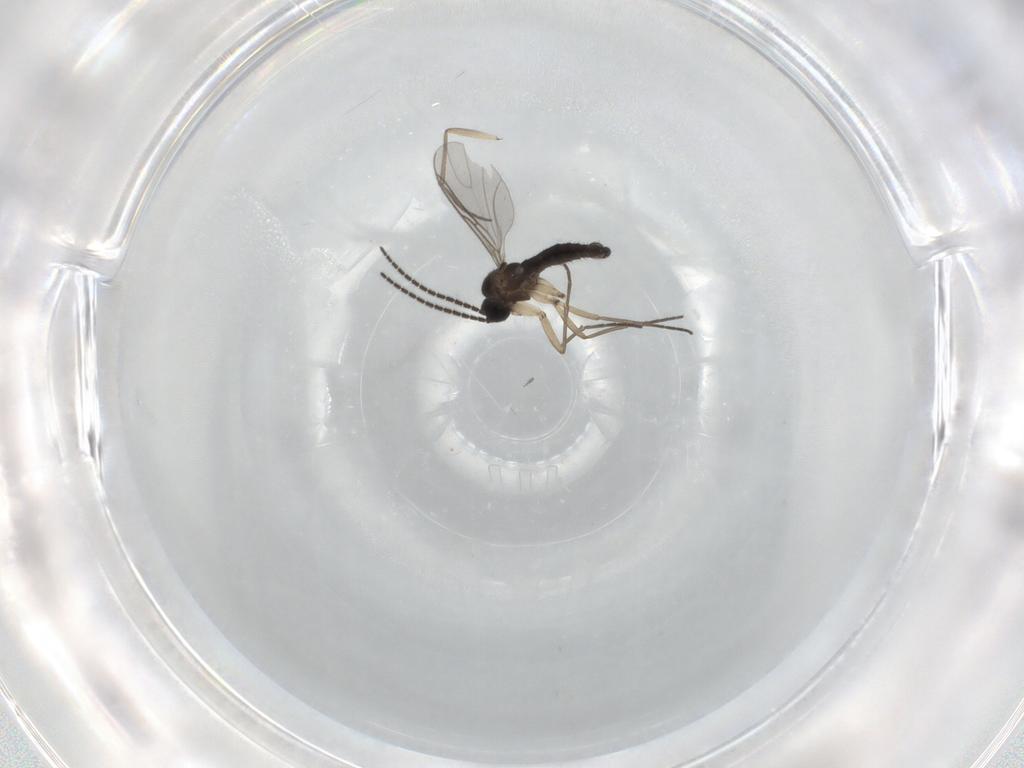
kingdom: Animalia
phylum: Arthropoda
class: Insecta
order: Diptera
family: Sciaridae
